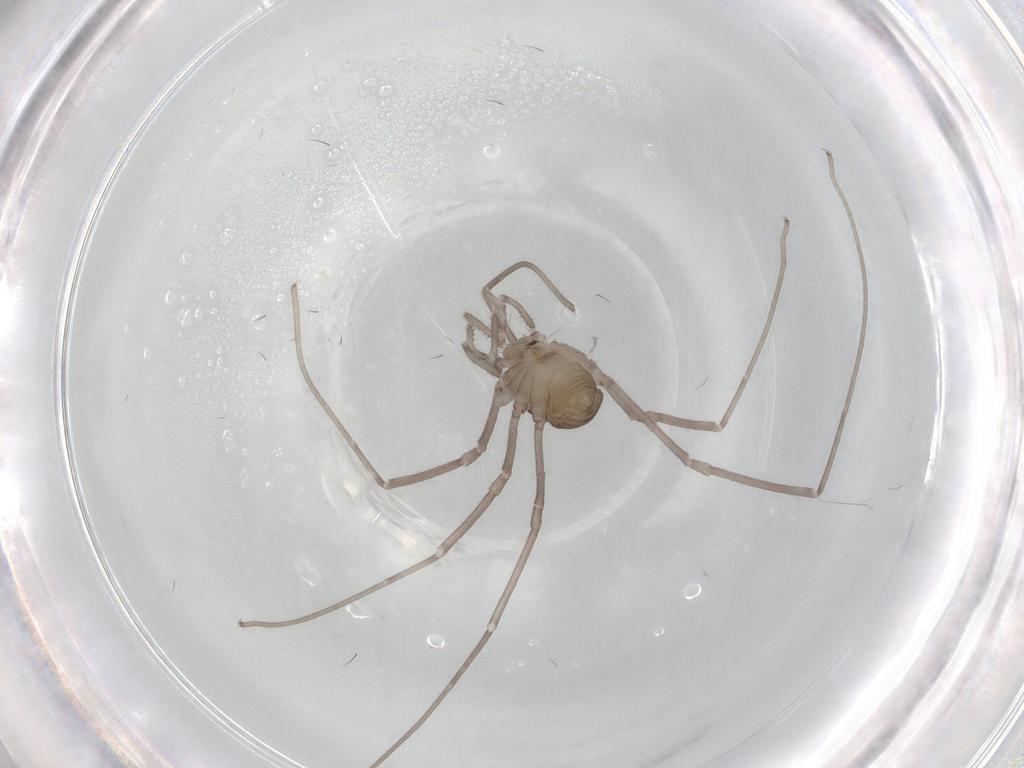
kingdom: Animalia
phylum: Arthropoda
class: Arachnida
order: Opiliones
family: Sclerosomatidae
